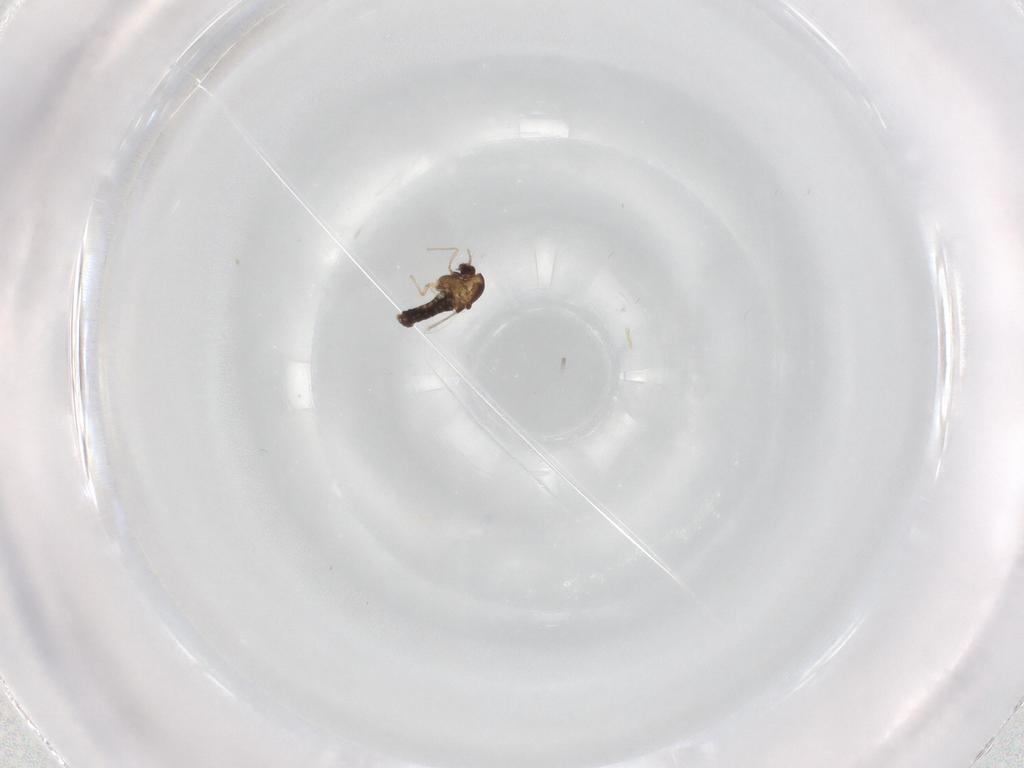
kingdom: Animalia
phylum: Arthropoda
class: Insecta
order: Diptera
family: Chironomidae
